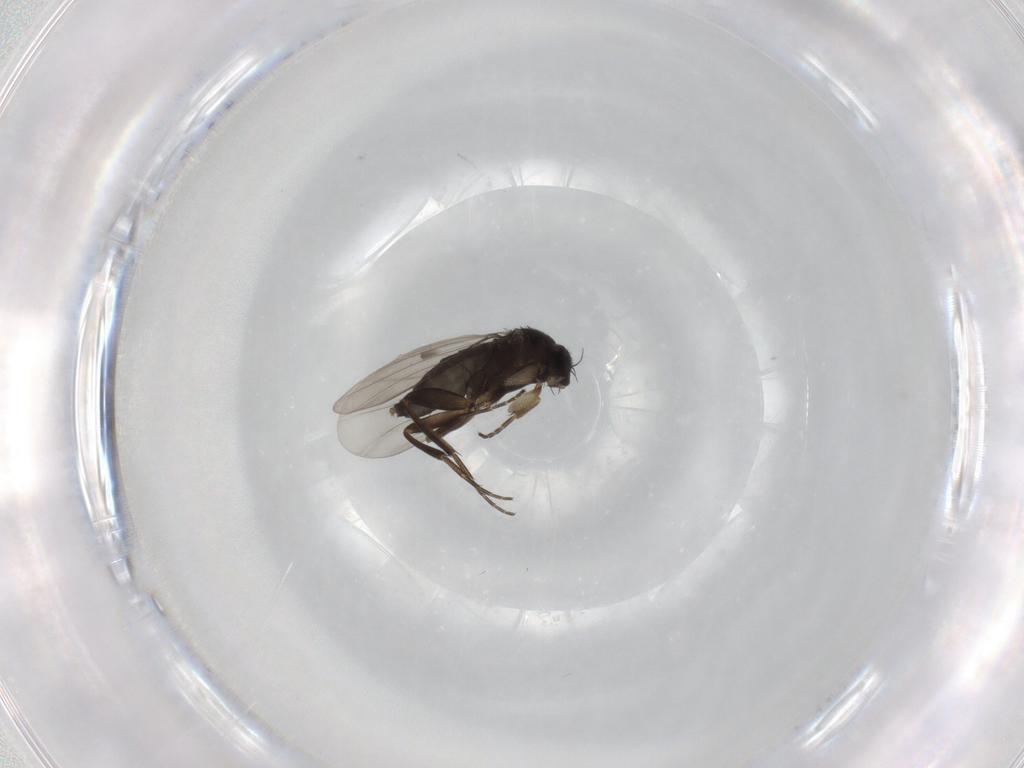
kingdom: Animalia
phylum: Arthropoda
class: Insecta
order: Diptera
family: Phoridae
